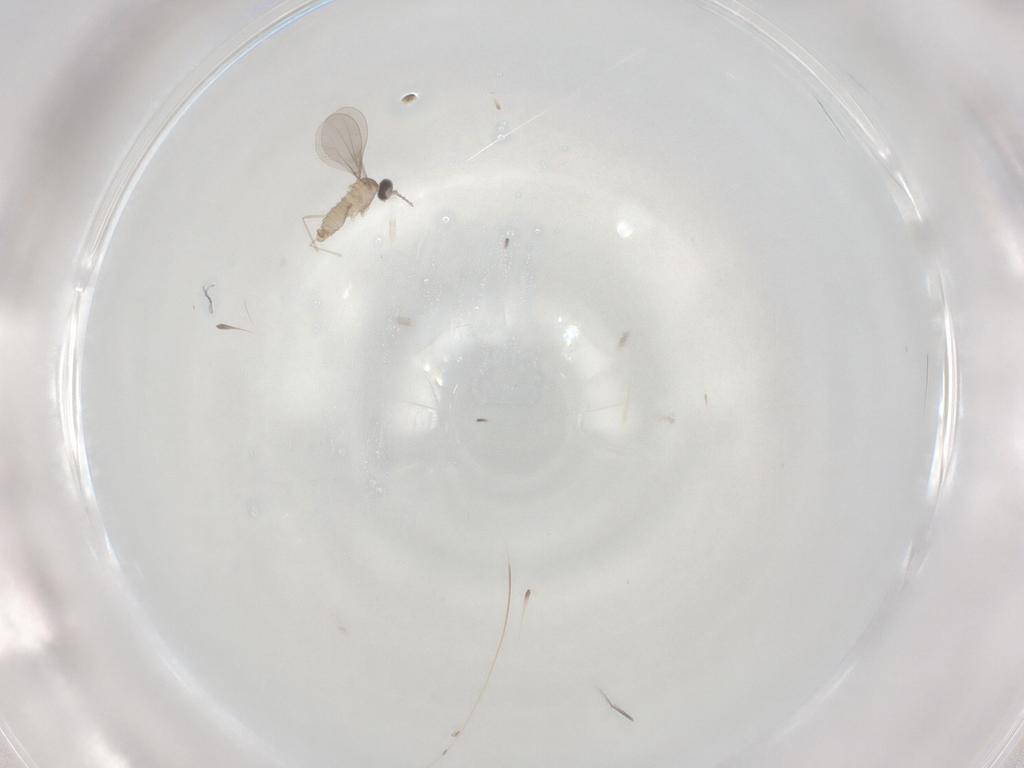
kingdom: Animalia
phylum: Arthropoda
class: Insecta
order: Diptera
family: Cecidomyiidae
